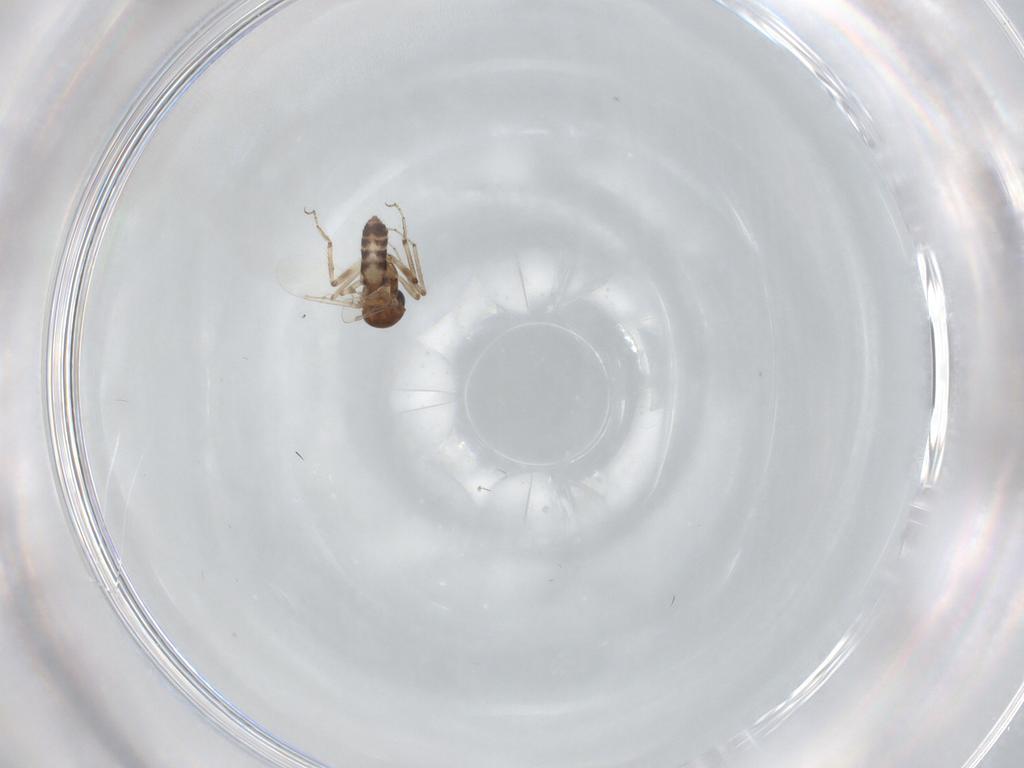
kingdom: Animalia
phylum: Arthropoda
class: Insecta
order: Diptera
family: Ceratopogonidae
